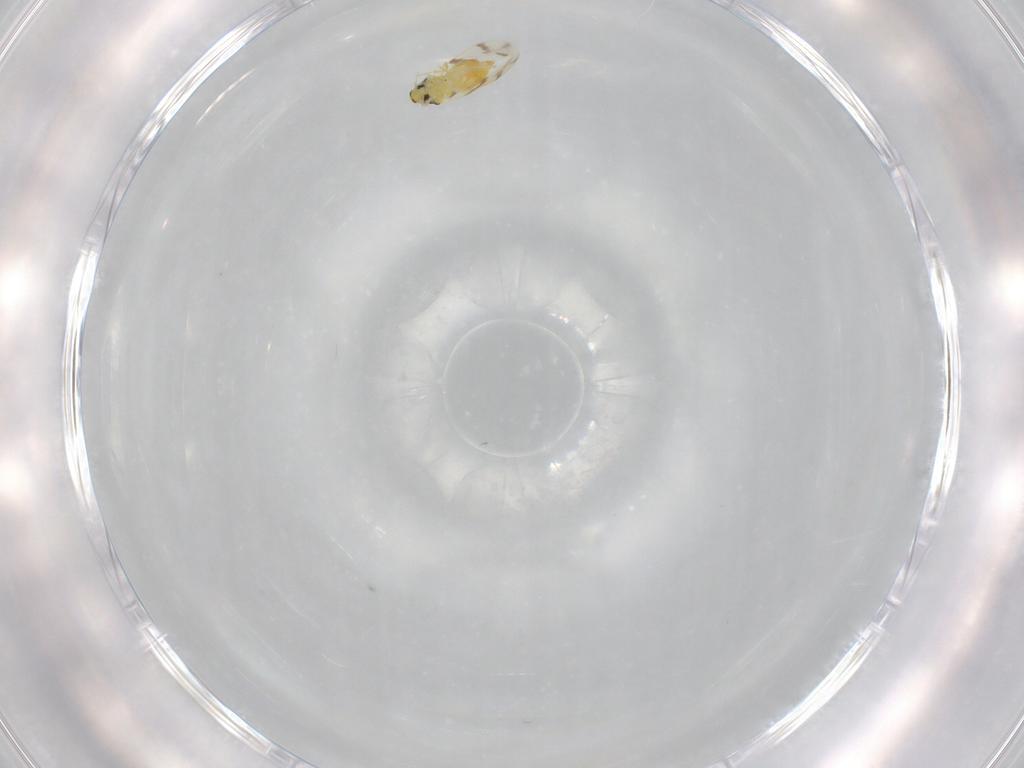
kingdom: Animalia
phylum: Arthropoda
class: Insecta
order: Hemiptera
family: Aleyrodidae
